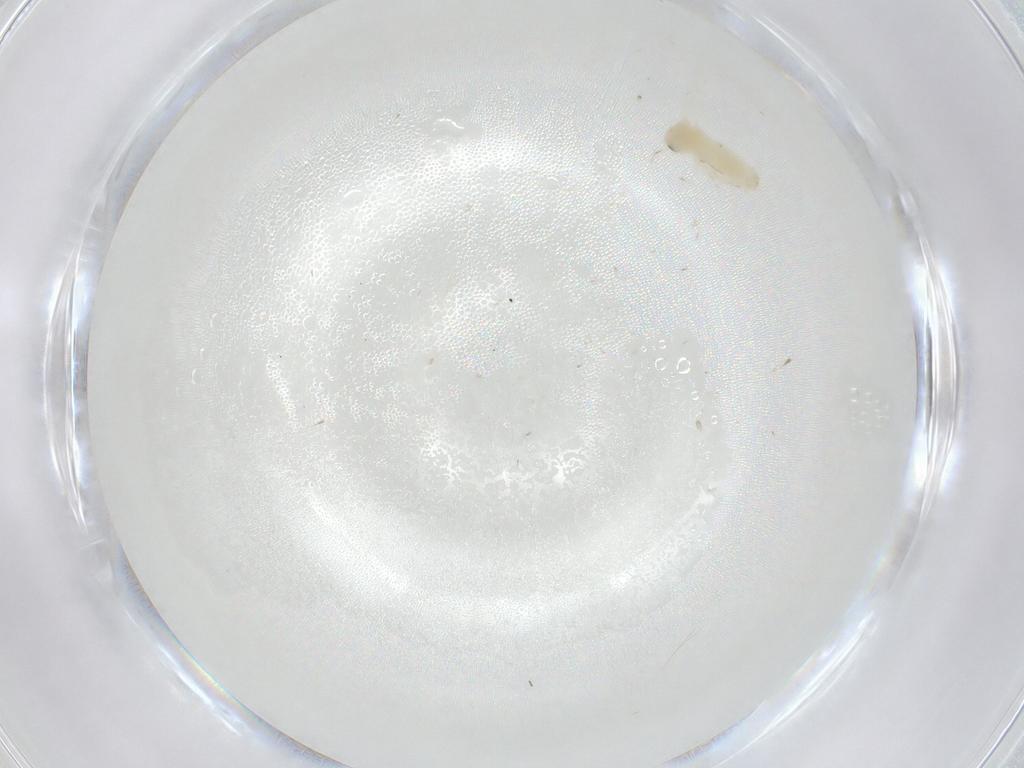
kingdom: Animalia
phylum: Arthropoda
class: Insecta
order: Hemiptera
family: Aleyrodidae
